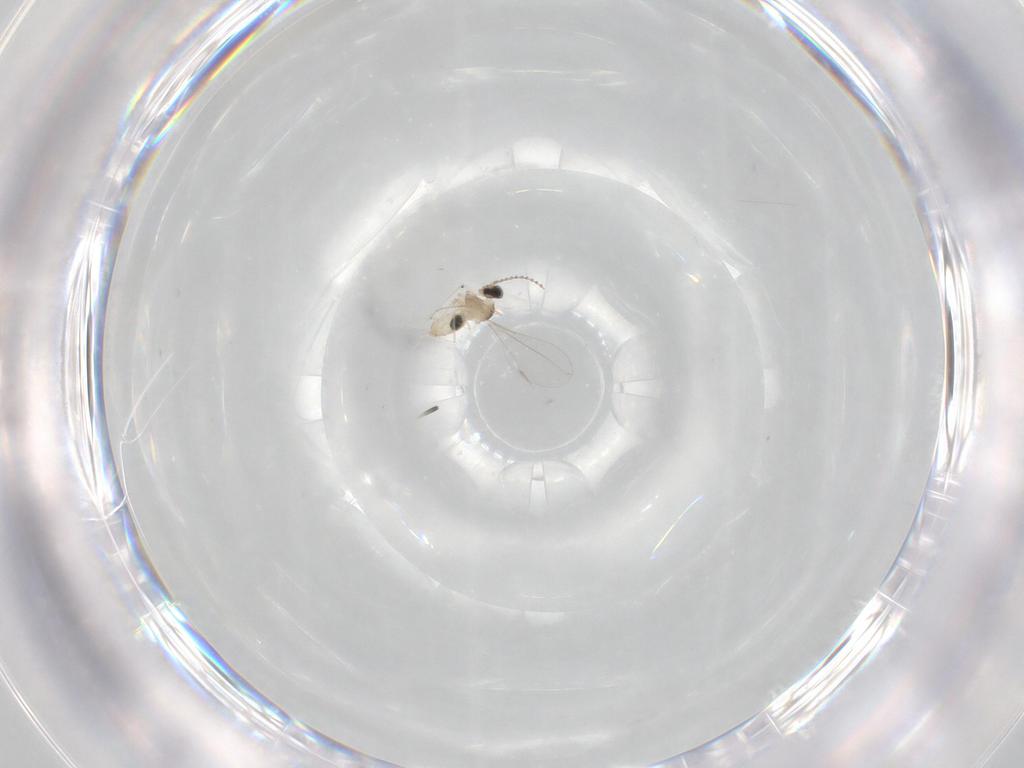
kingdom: Animalia
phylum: Arthropoda
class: Insecta
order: Diptera
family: Cecidomyiidae
